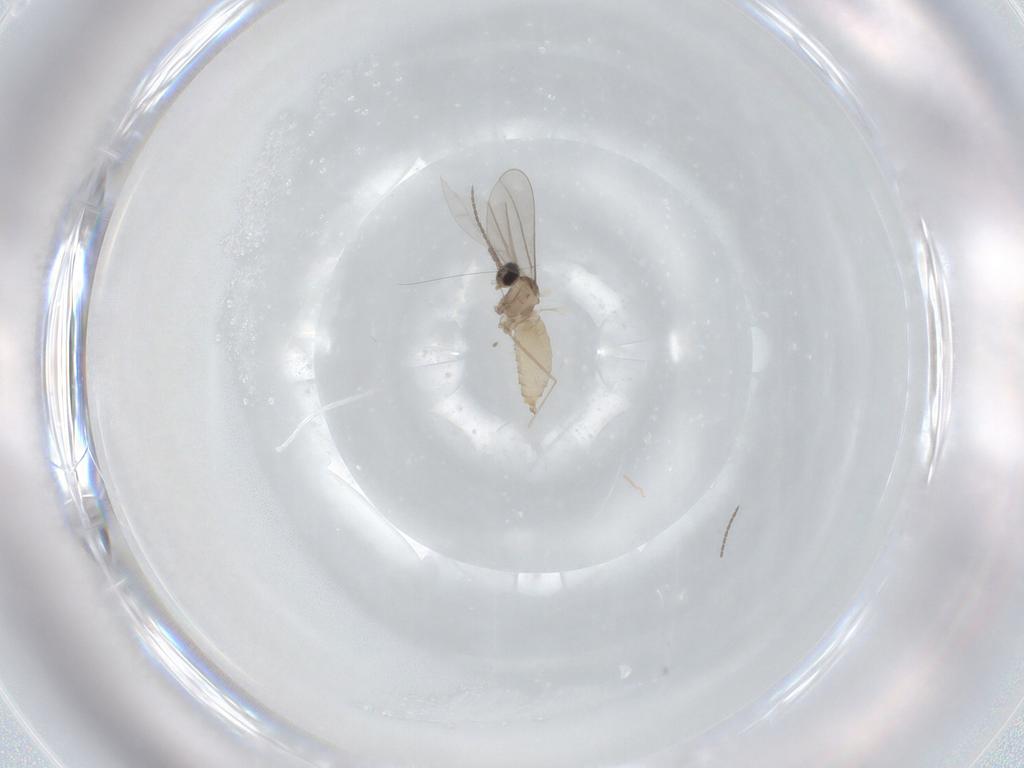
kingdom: Animalia
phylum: Arthropoda
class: Insecta
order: Diptera
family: Cecidomyiidae
